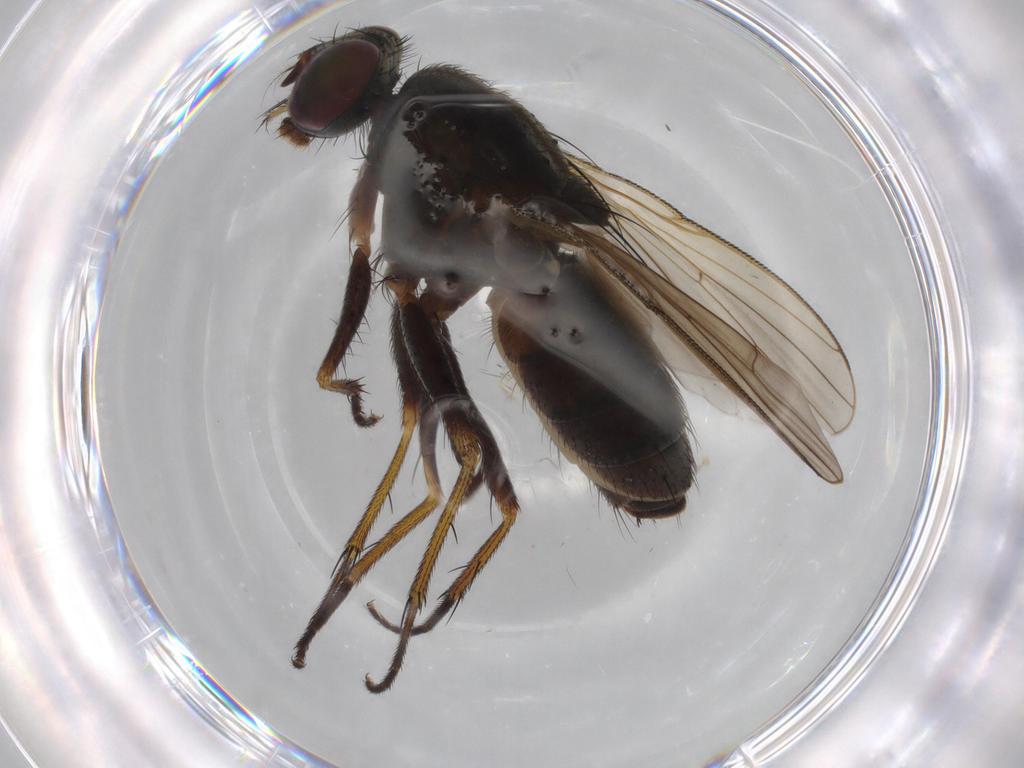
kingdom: Animalia
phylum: Arthropoda
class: Insecta
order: Diptera
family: Muscidae
